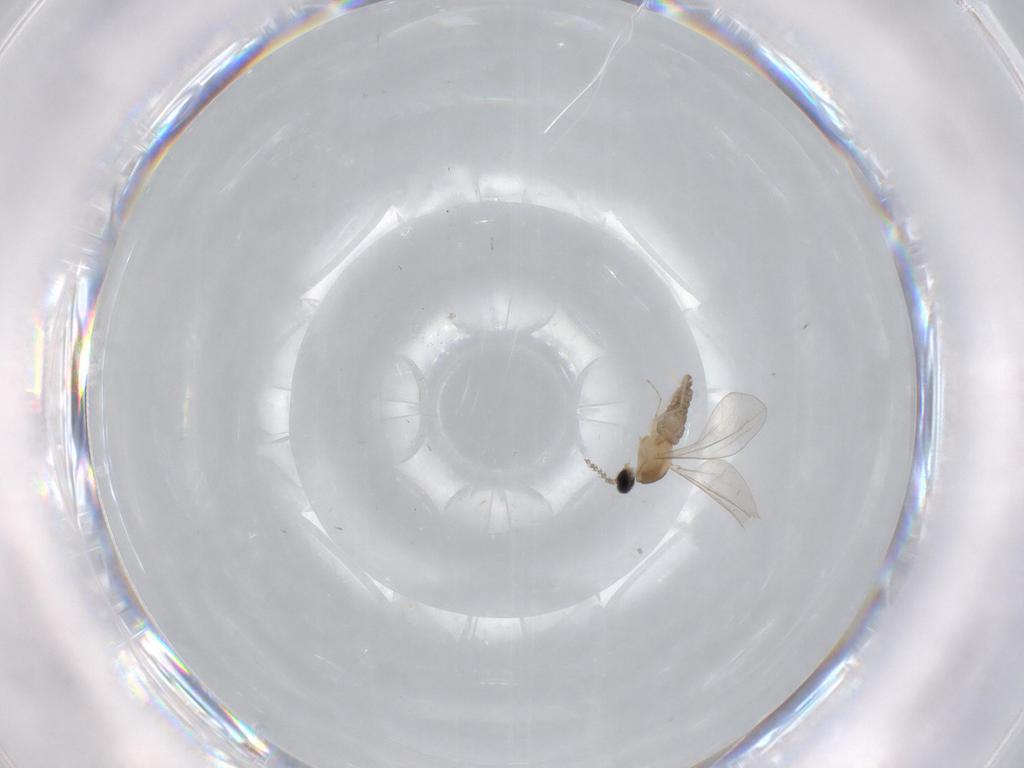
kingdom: Animalia
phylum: Arthropoda
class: Insecta
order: Diptera
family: Cecidomyiidae
